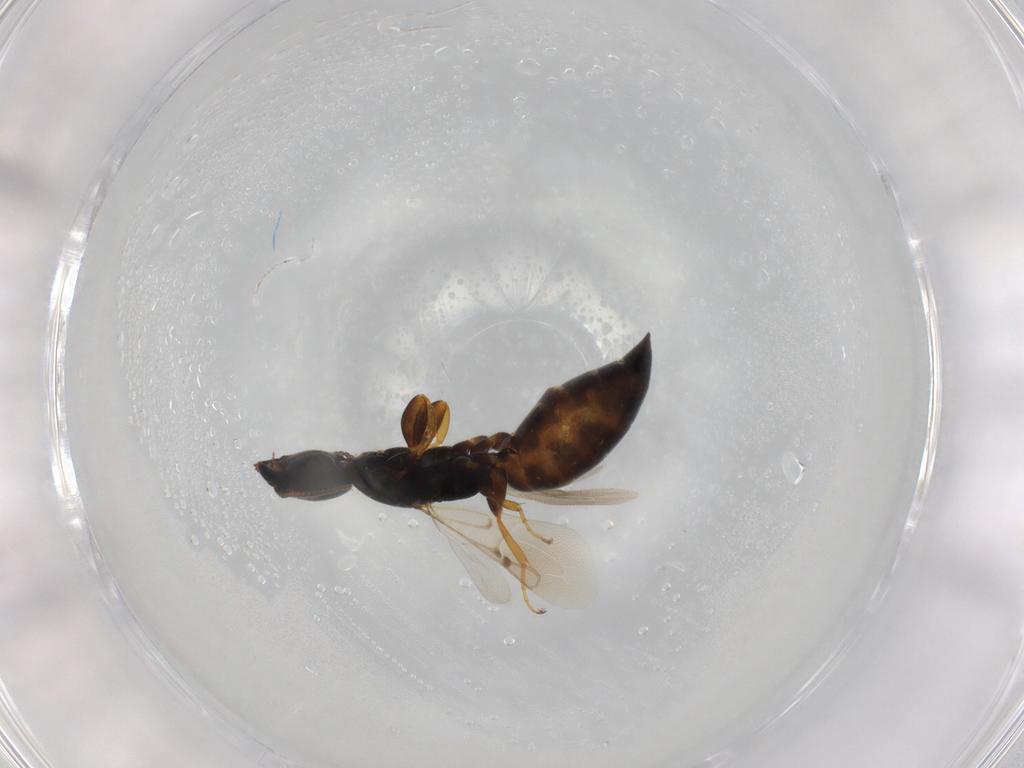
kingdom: Animalia
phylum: Arthropoda
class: Insecta
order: Hymenoptera
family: Bethylidae
